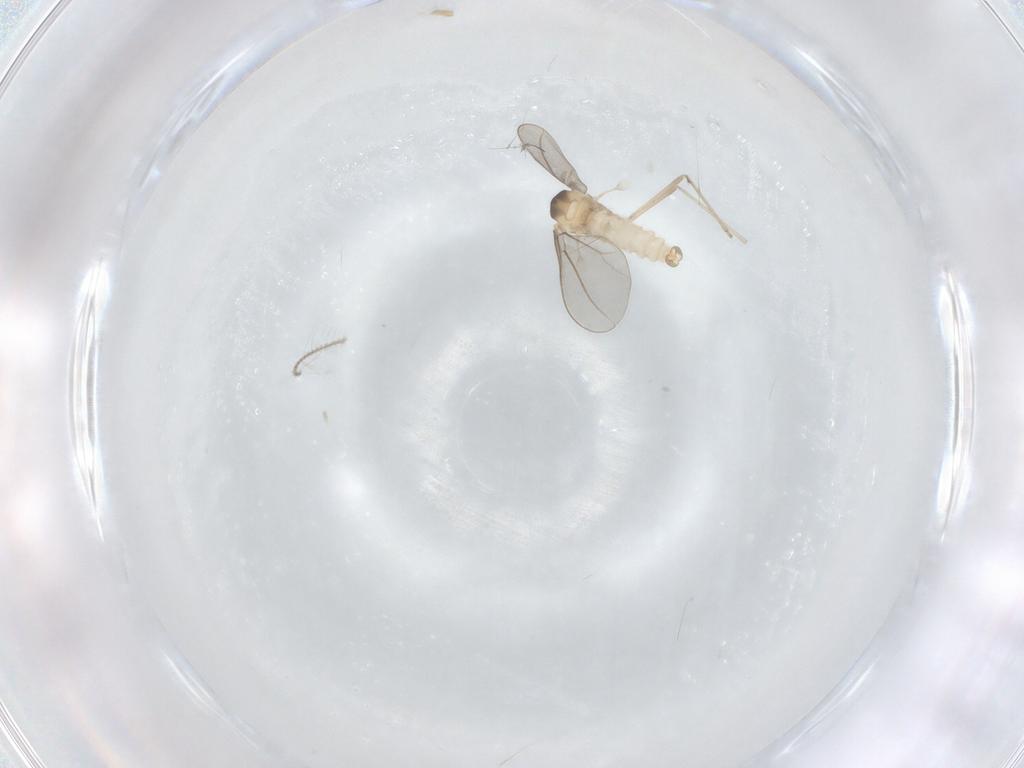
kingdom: Animalia
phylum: Arthropoda
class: Insecta
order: Diptera
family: Cecidomyiidae
